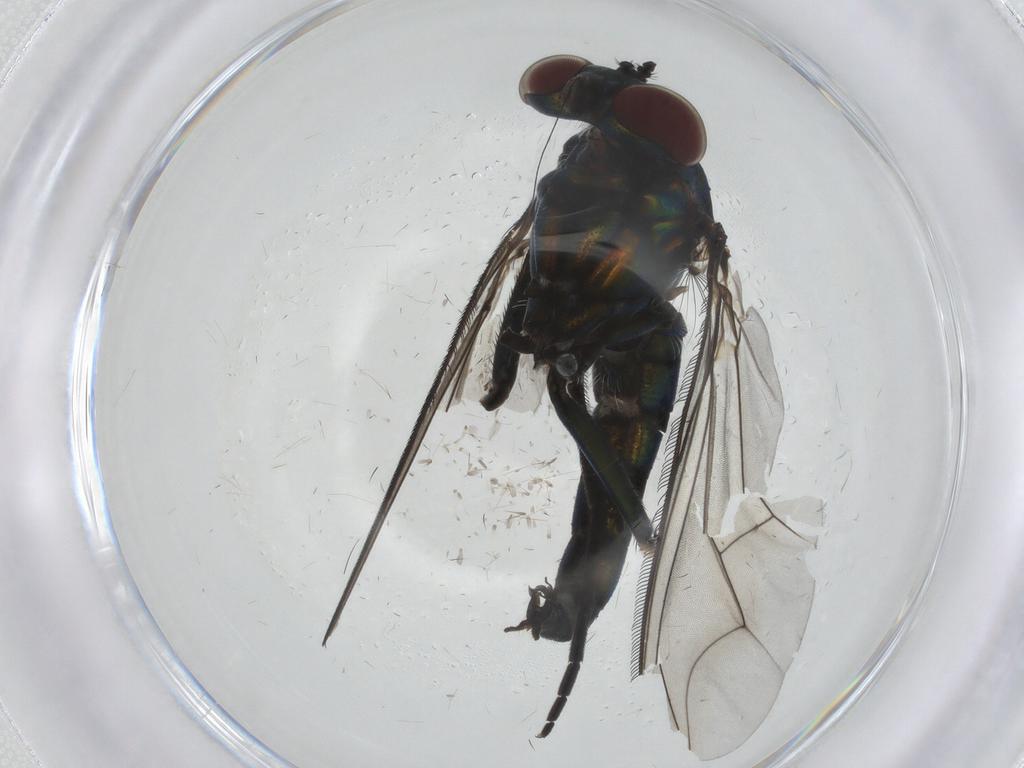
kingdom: Animalia
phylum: Arthropoda
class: Insecta
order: Diptera
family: Dolichopodidae
